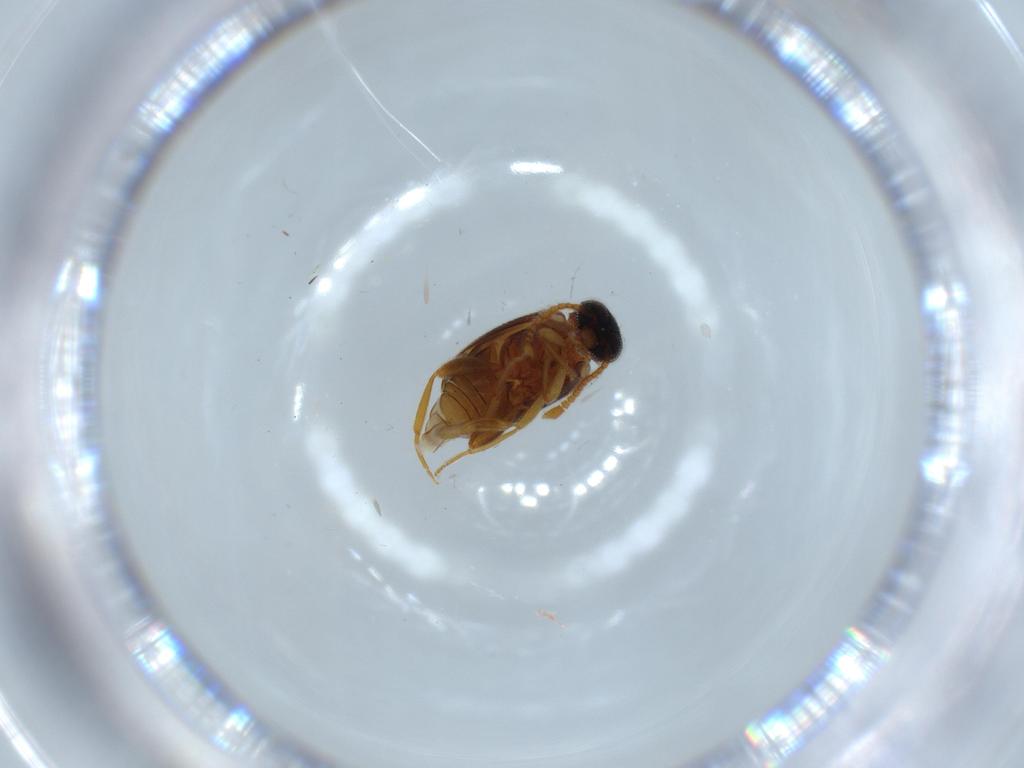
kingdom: Animalia
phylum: Arthropoda
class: Insecta
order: Coleoptera
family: Aderidae
